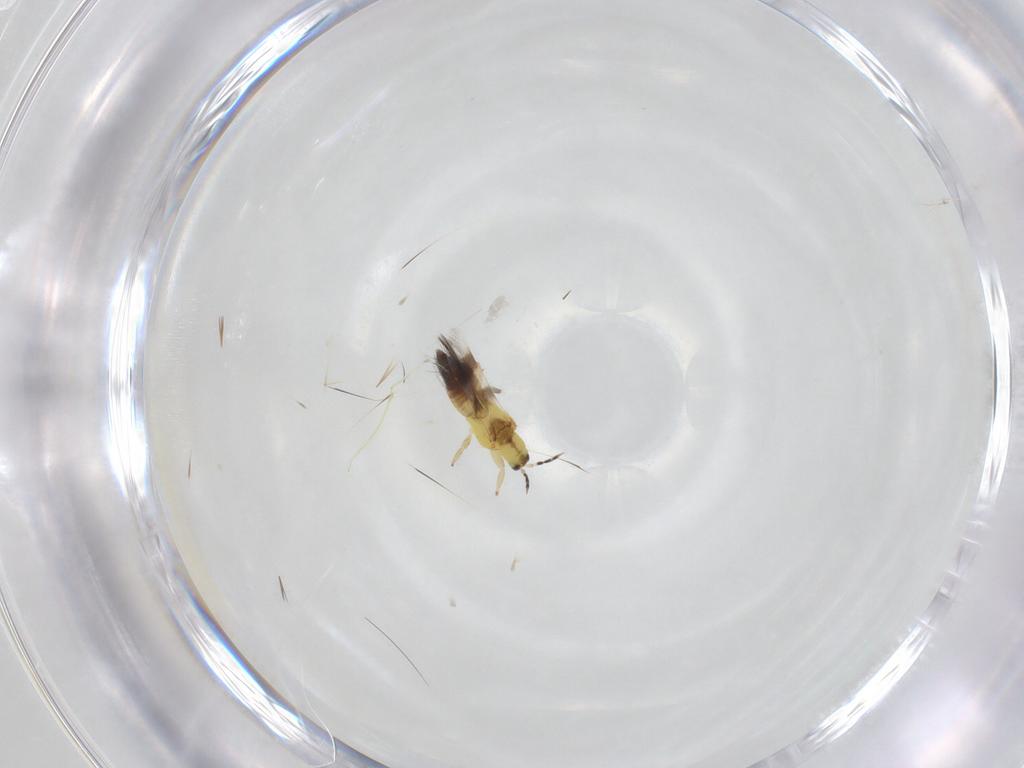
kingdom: Animalia
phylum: Arthropoda
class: Insecta
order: Thysanoptera
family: Aeolothripidae
